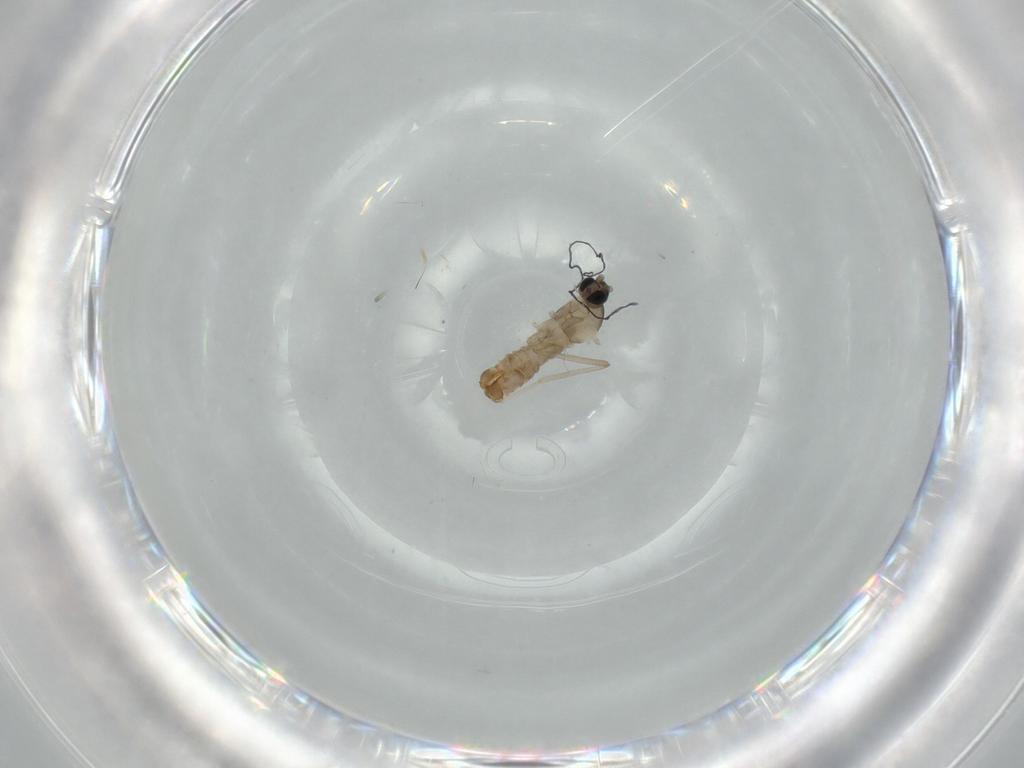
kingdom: Animalia
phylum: Arthropoda
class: Insecta
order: Diptera
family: Cecidomyiidae
